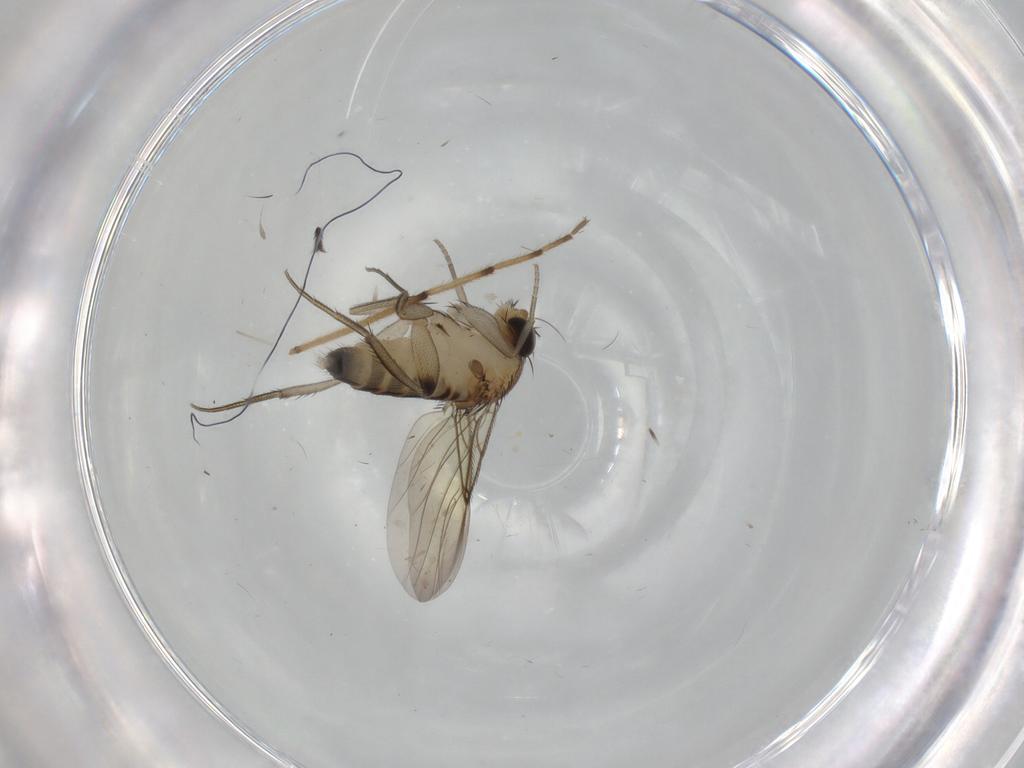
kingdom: Animalia
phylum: Arthropoda
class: Insecta
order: Diptera
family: Phoridae
